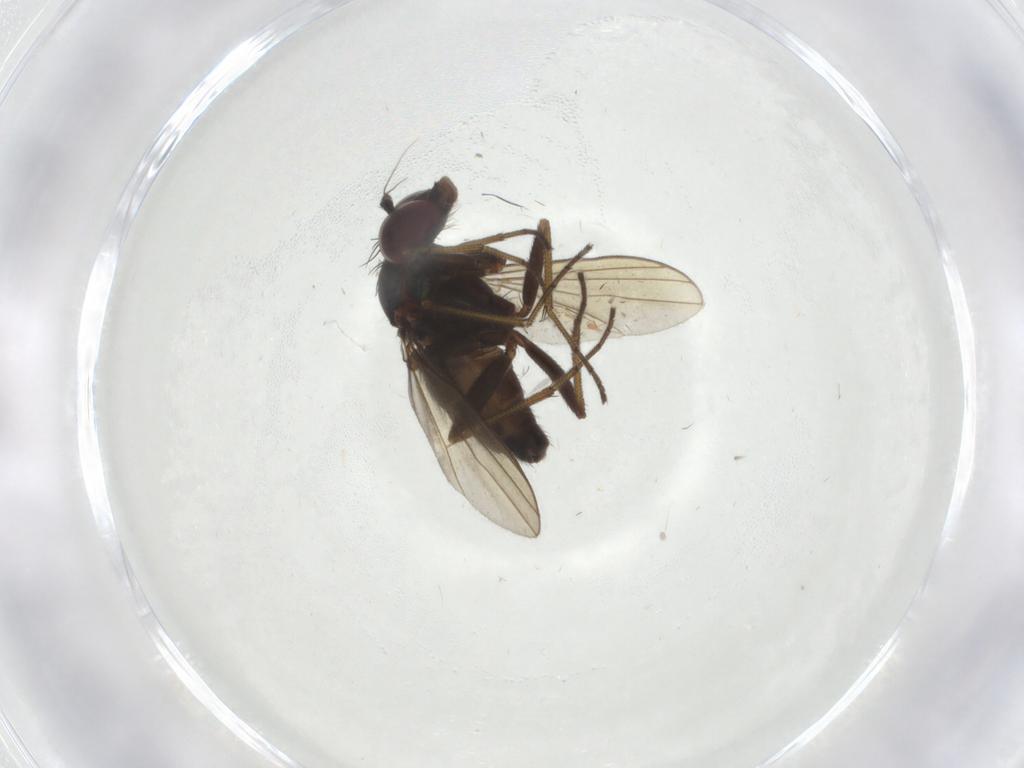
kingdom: Animalia
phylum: Arthropoda
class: Insecta
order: Diptera
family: Dolichopodidae
